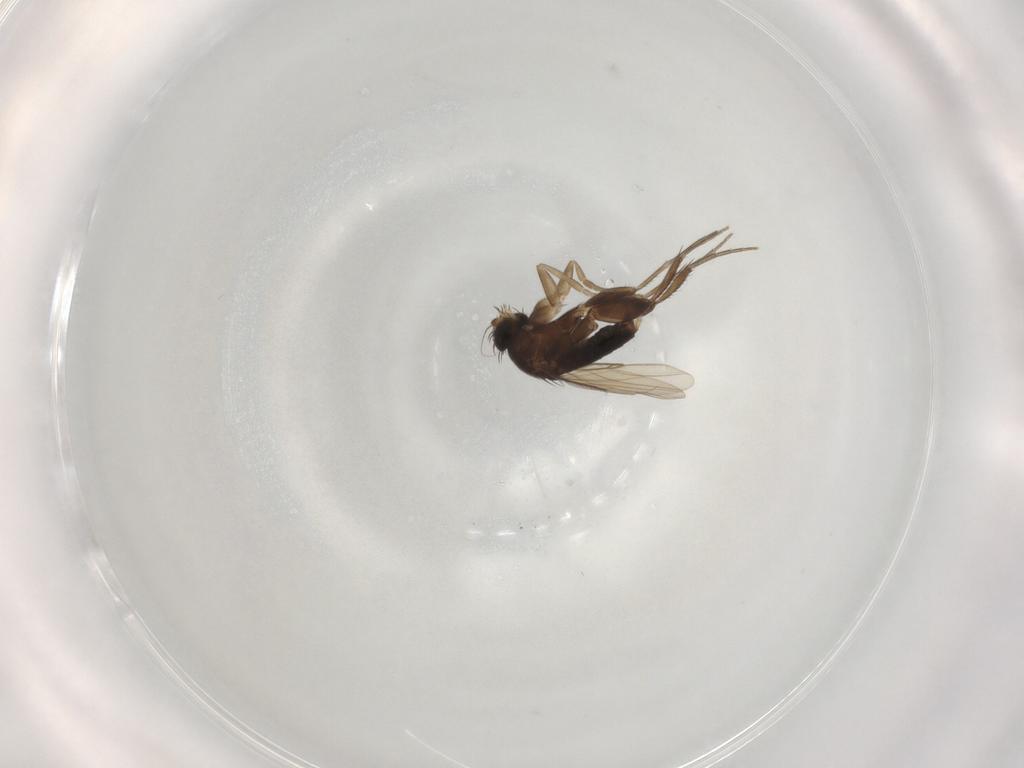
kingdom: Animalia
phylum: Arthropoda
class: Insecta
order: Diptera
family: Phoridae
